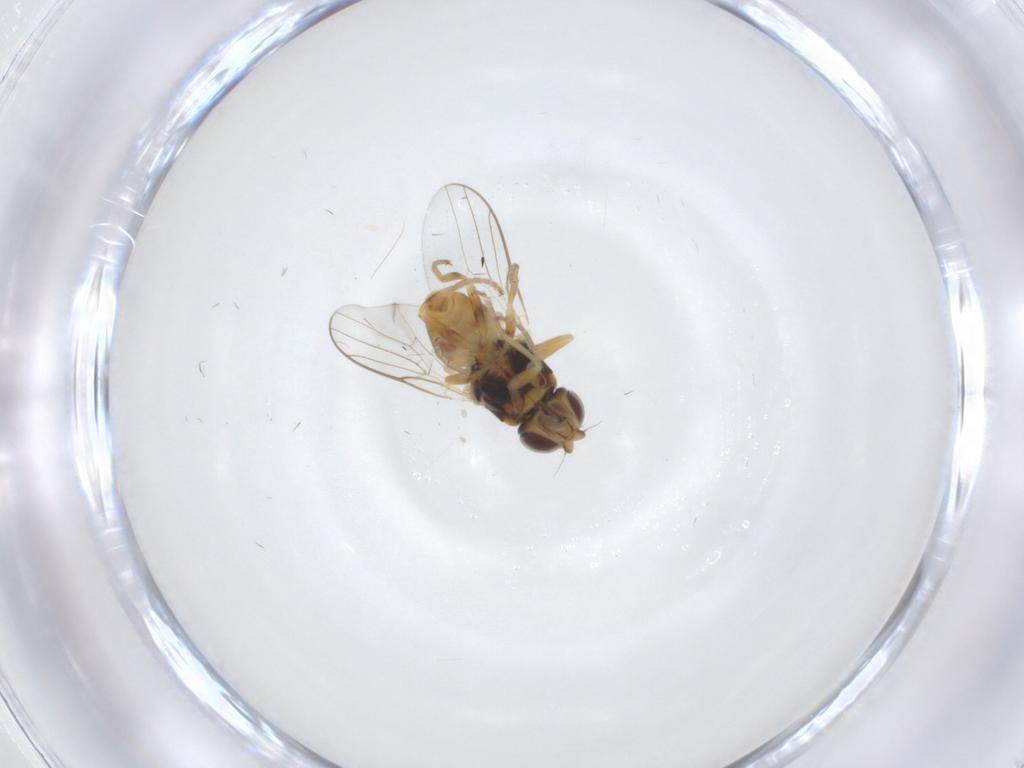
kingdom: Animalia
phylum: Arthropoda
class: Insecta
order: Diptera
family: Chloropidae
